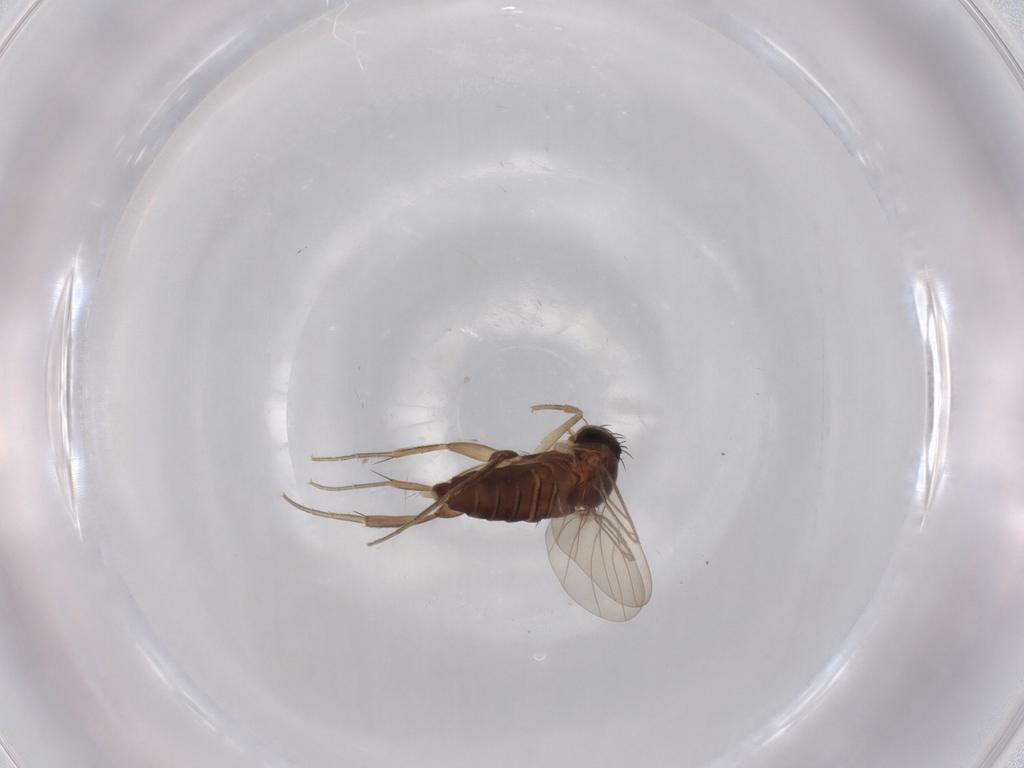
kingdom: Animalia
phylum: Arthropoda
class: Insecta
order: Diptera
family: Phoridae
